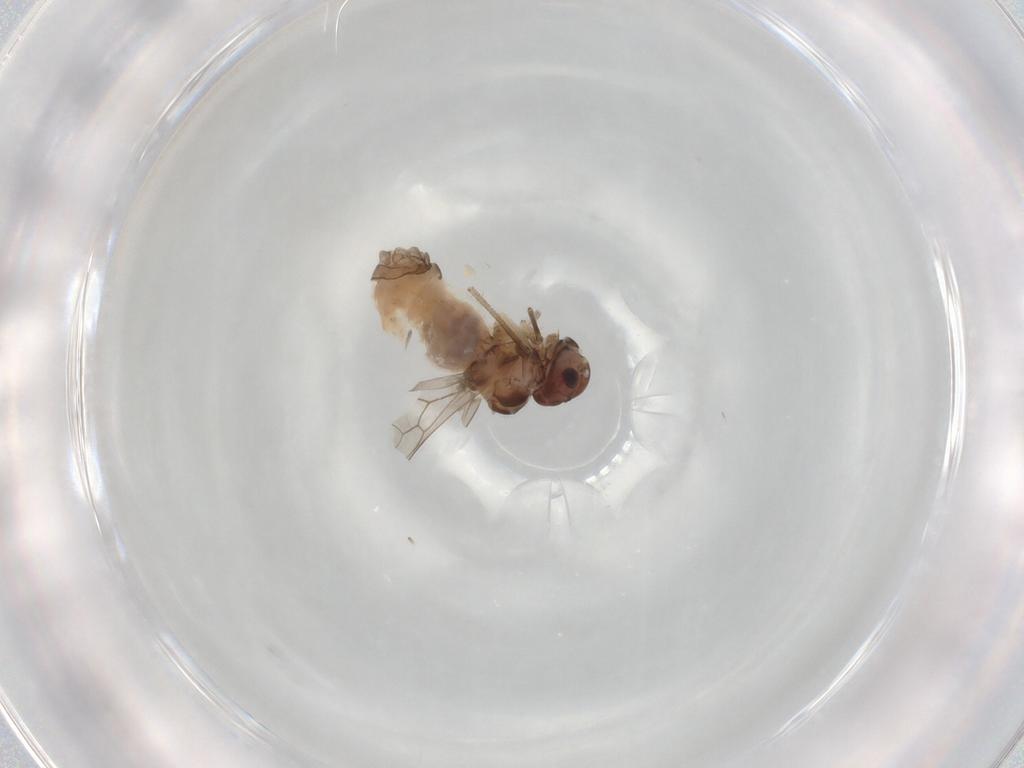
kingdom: Animalia
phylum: Arthropoda
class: Insecta
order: Psocodea
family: Peripsocidae
